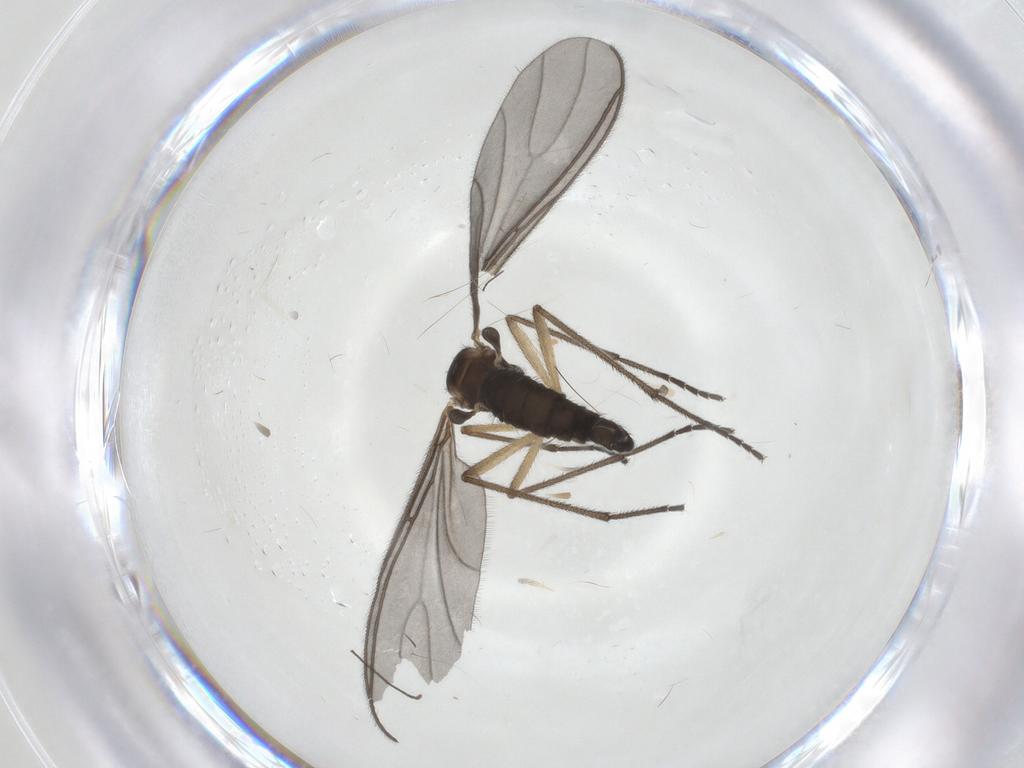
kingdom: Animalia
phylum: Arthropoda
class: Insecta
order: Diptera
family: Sciaridae
